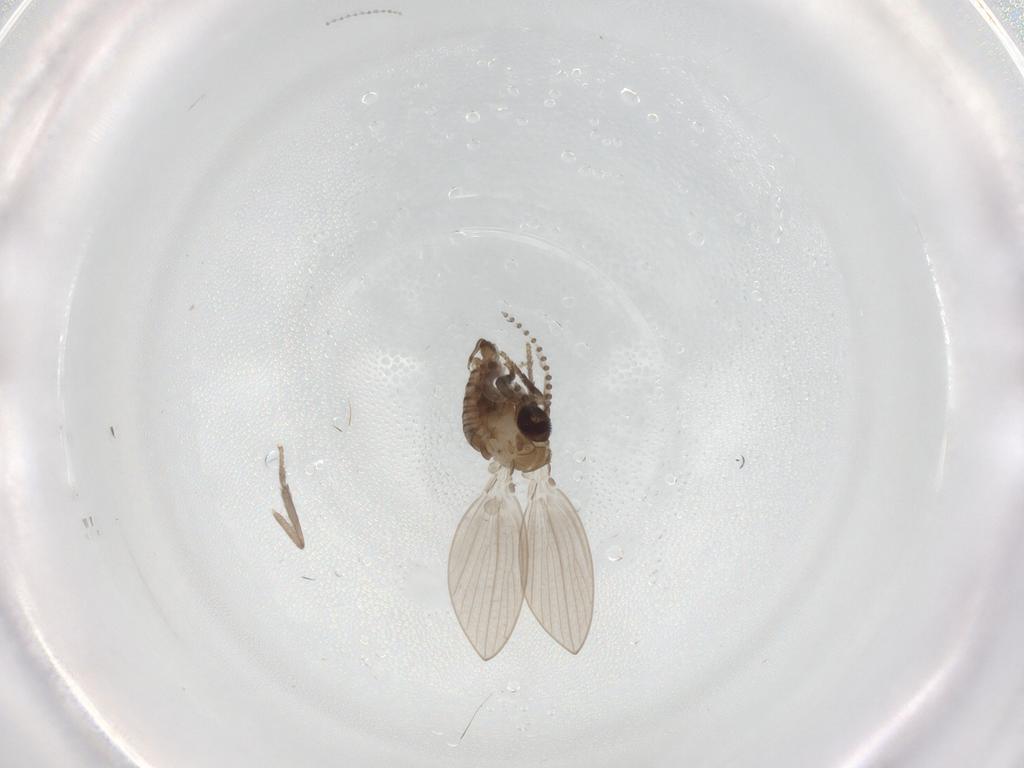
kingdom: Animalia
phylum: Arthropoda
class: Insecta
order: Diptera
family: Psychodidae
